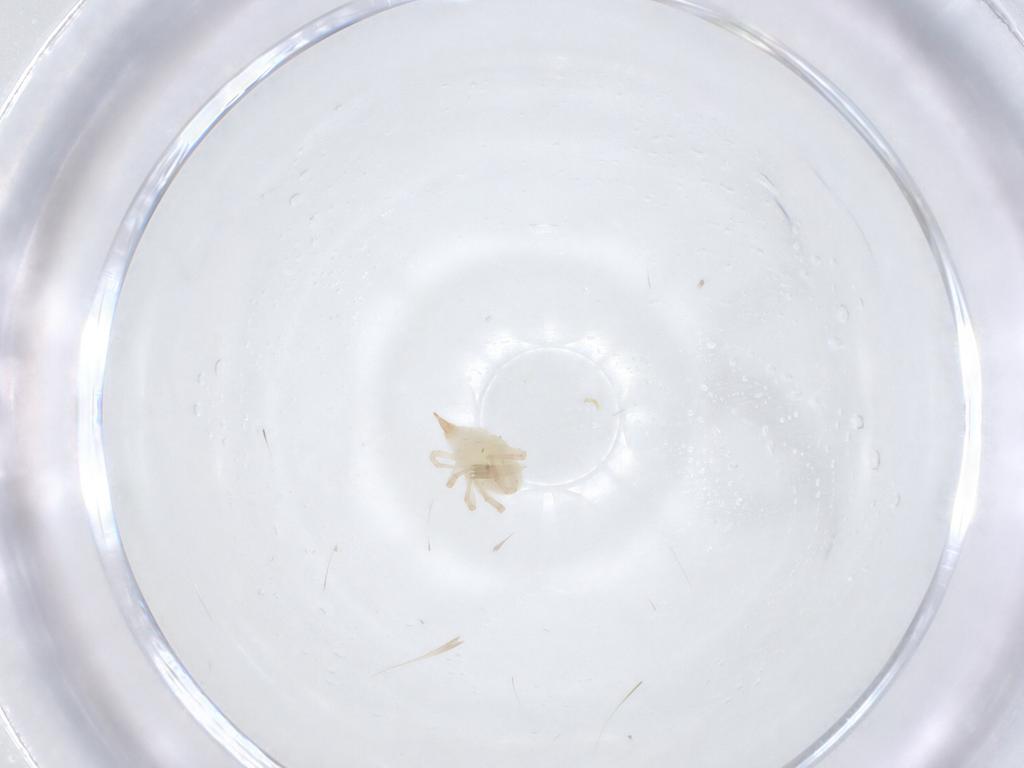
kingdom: Animalia
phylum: Arthropoda
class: Arachnida
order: Trombidiformes
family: Bdellidae
